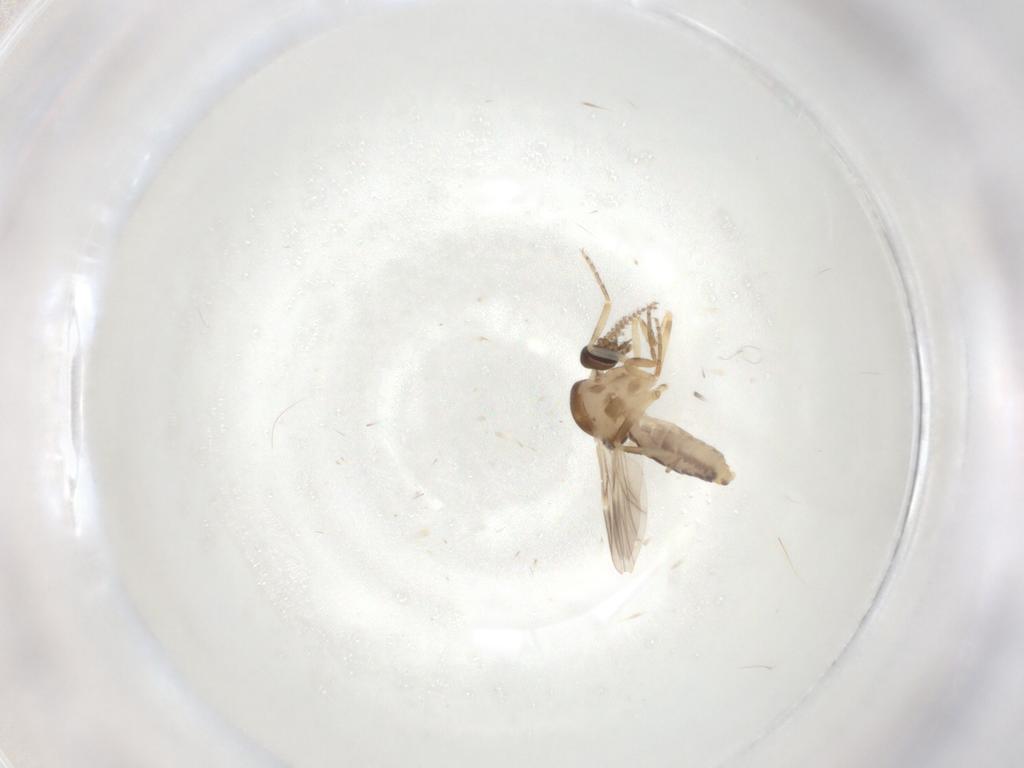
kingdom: Animalia
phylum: Arthropoda
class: Insecta
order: Diptera
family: Ceratopogonidae
